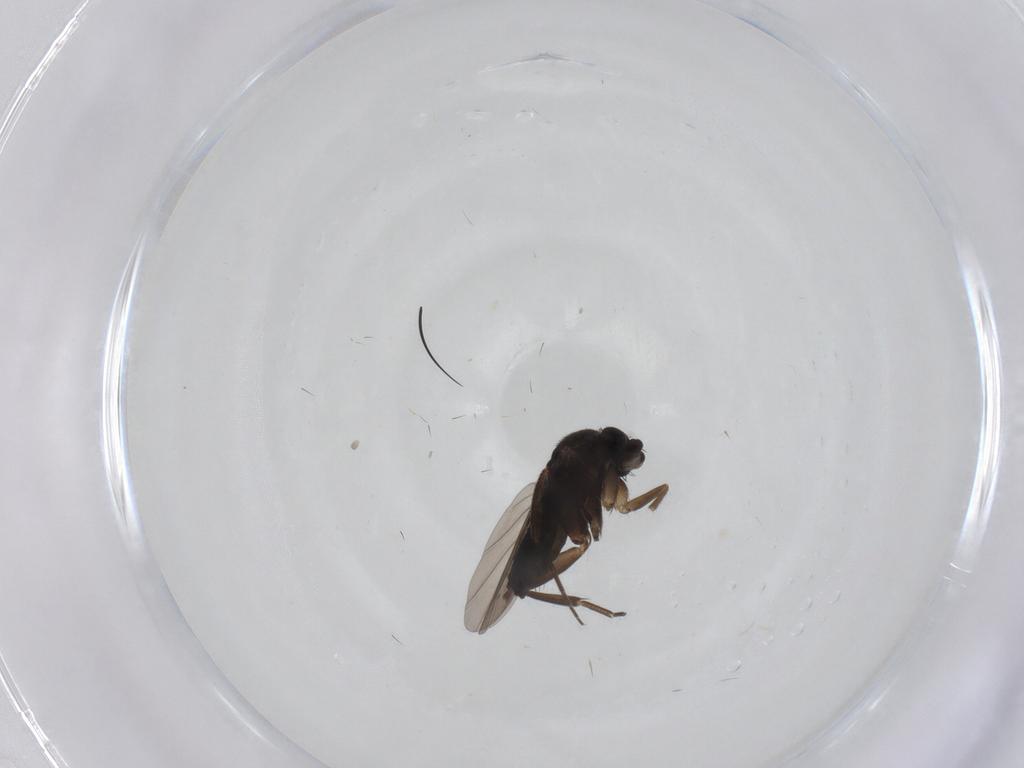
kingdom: Animalia
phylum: Arthropoda
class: Insecta
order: Diptera
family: Phoridae
